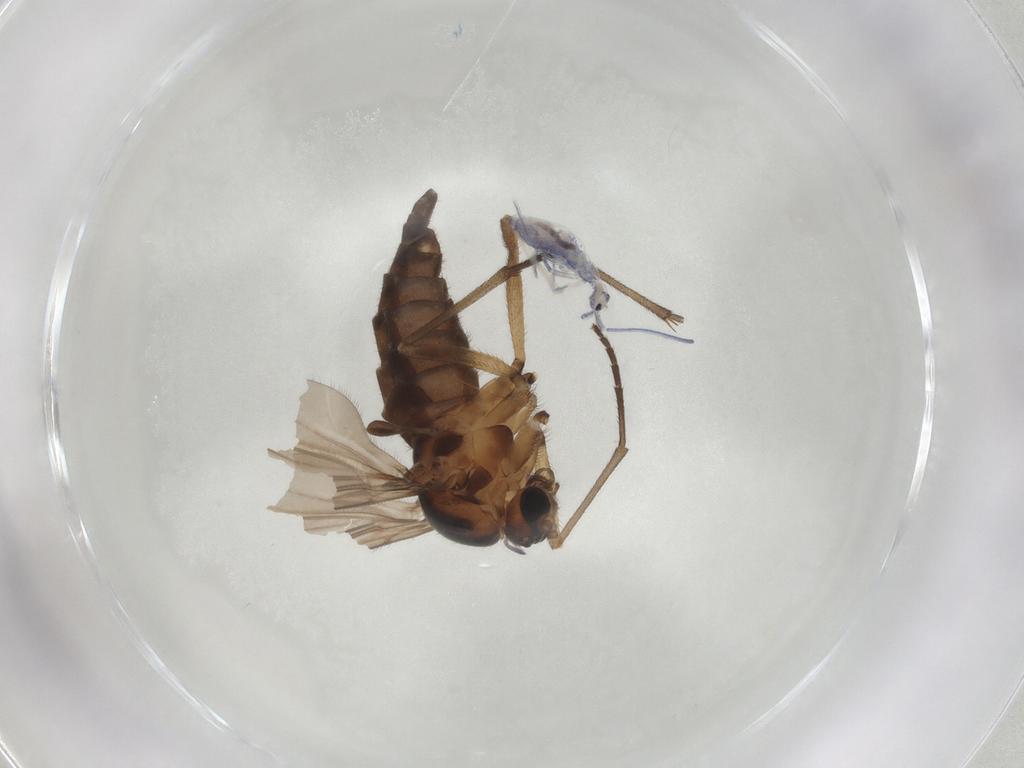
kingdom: Animalia
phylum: Arthropoda
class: Insecta
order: Diptera
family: Sciaridae
